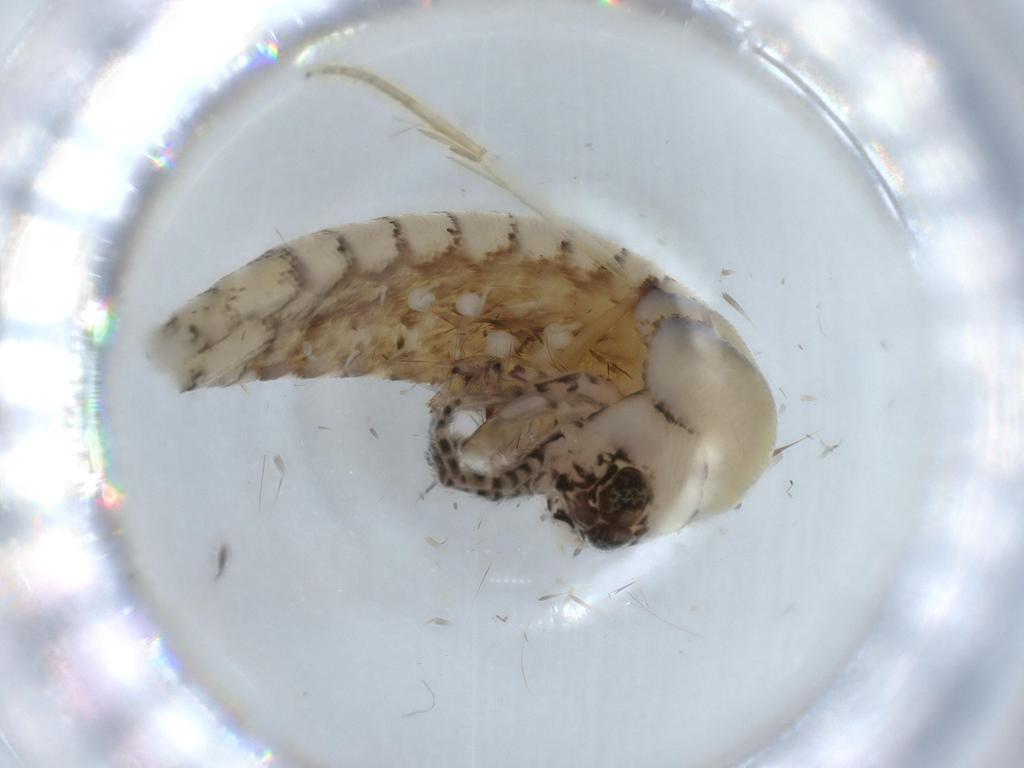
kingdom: Animalia
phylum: Arthropoda
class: Insecta
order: Archaeognatha
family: Machilidae
